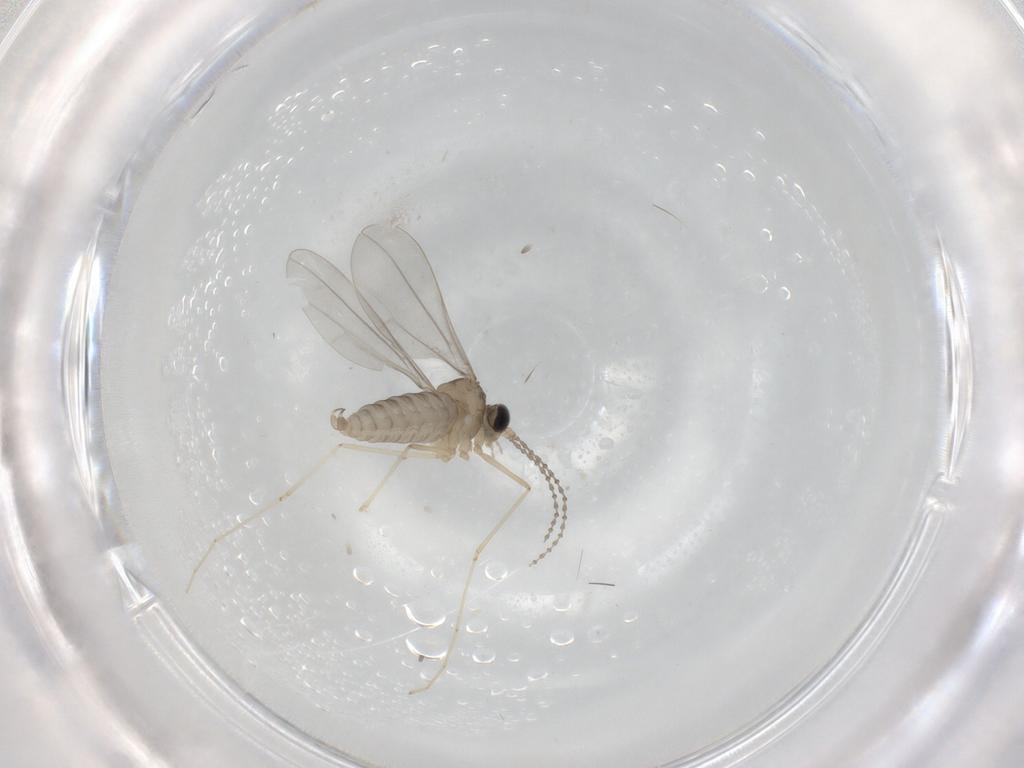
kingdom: Animalia
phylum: Arthropoda
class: Insecta
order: Diptera
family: Cecidomyiidae
